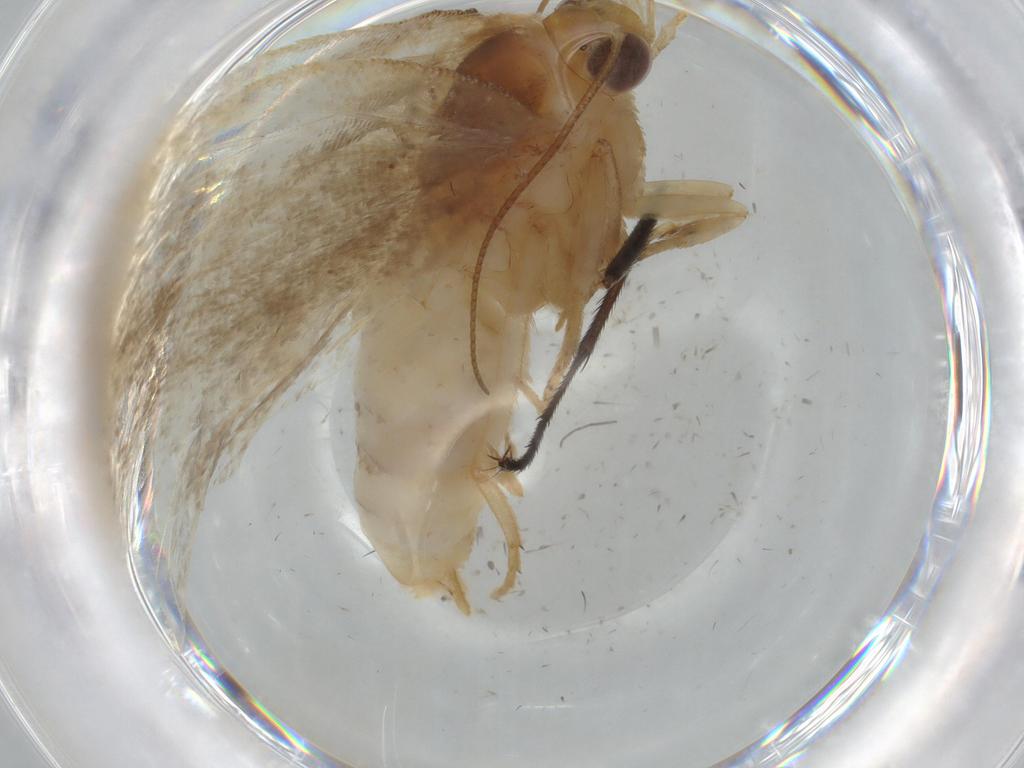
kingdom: Animalia
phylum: Arthropoda
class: Insecta
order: Lepidoptera
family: Tortricidae
